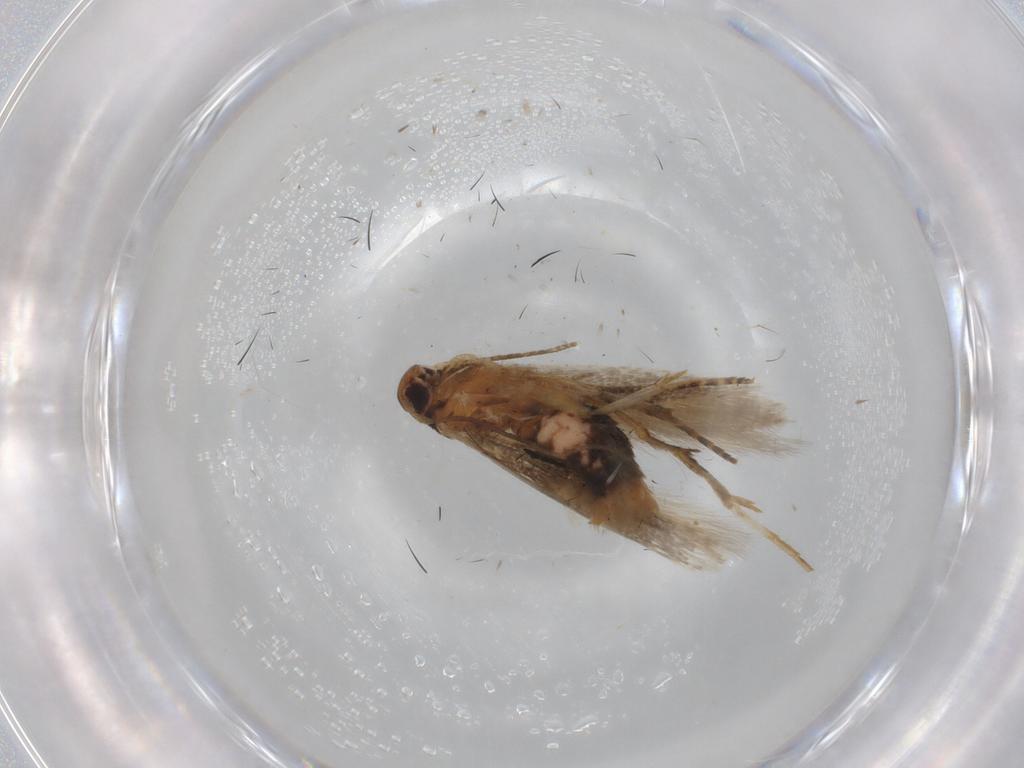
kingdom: Animalia
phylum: Arthropoda
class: Insecta
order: Lepidoptera
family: Cosmopterigidae
